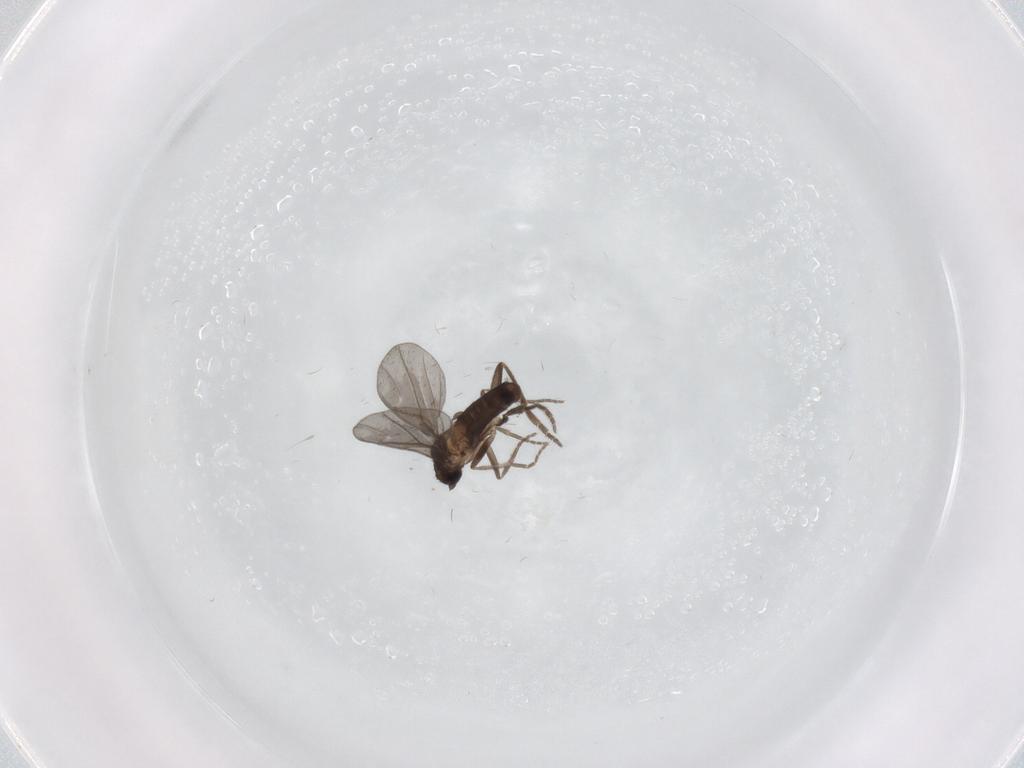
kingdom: Animalia
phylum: Arthropoda
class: Insecta
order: Diptera
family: Phoridae
